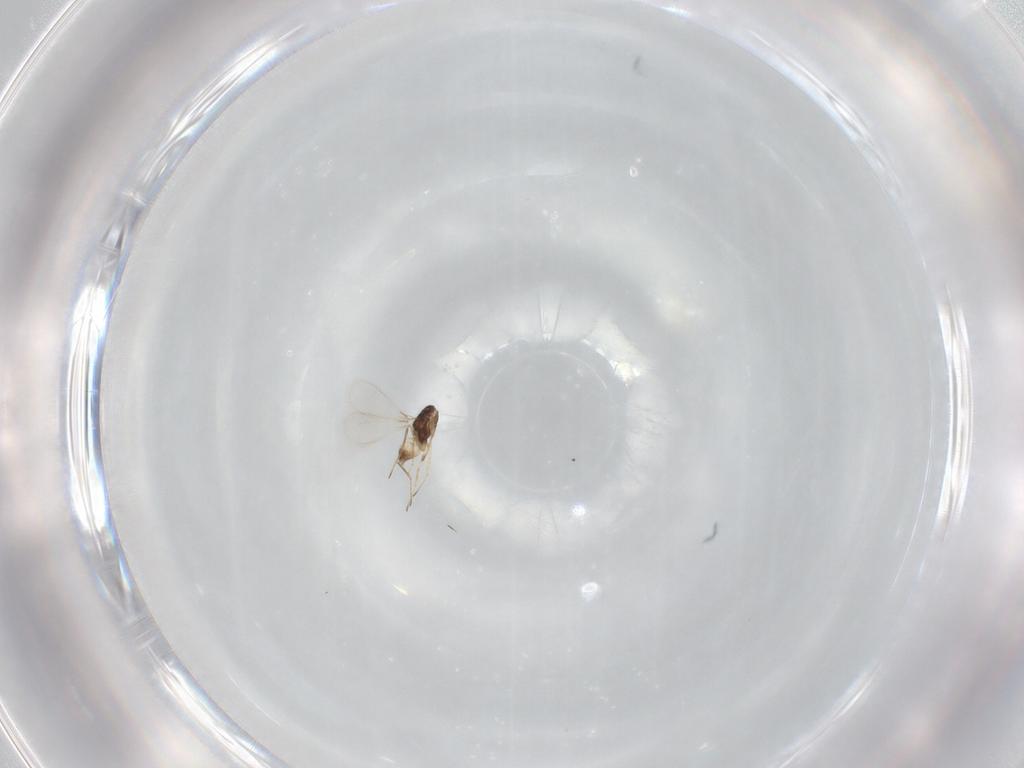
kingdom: Animalia
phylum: Arthropoda
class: Insecta
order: Hymenoptera
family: Mymaridae
